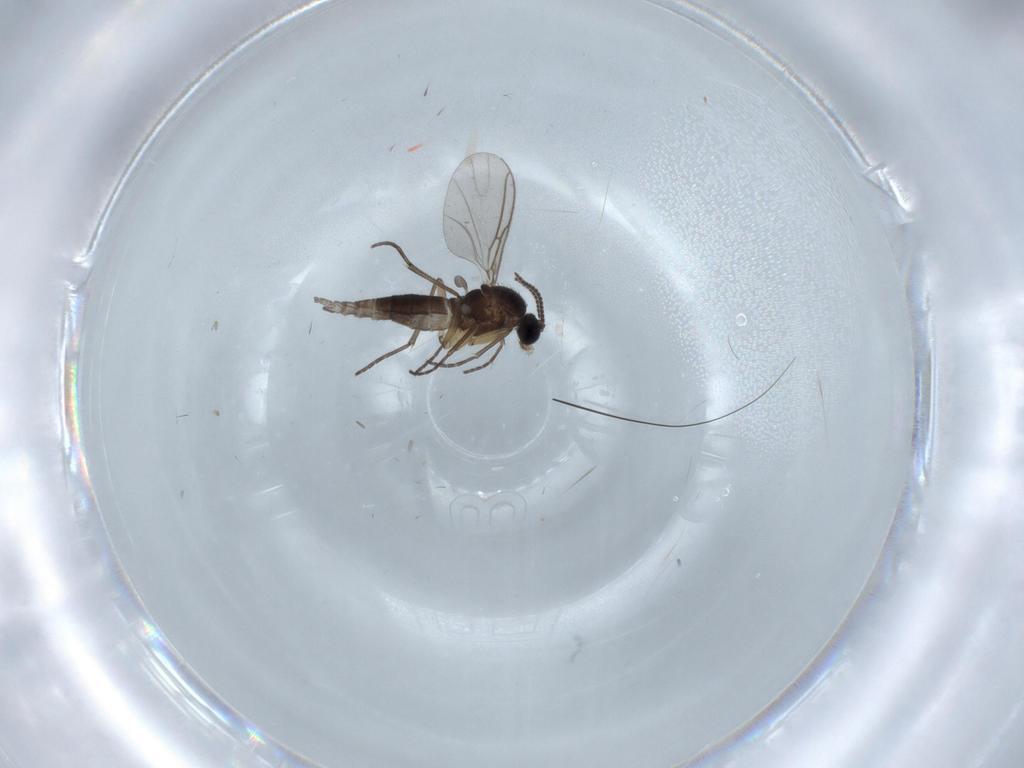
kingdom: Animalia
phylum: Arthropoda
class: Insecta
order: Diptera
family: Sciaridae
